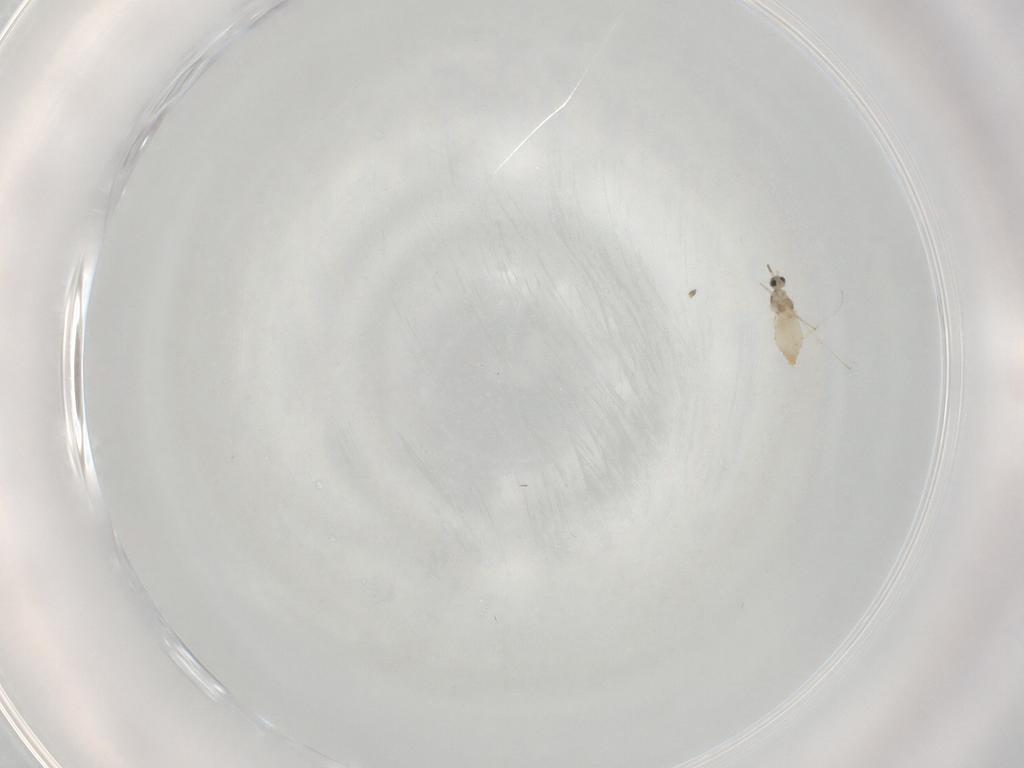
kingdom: Animalia
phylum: Arthropoda
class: Insecta
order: Diptera
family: Cecidomyiidae
